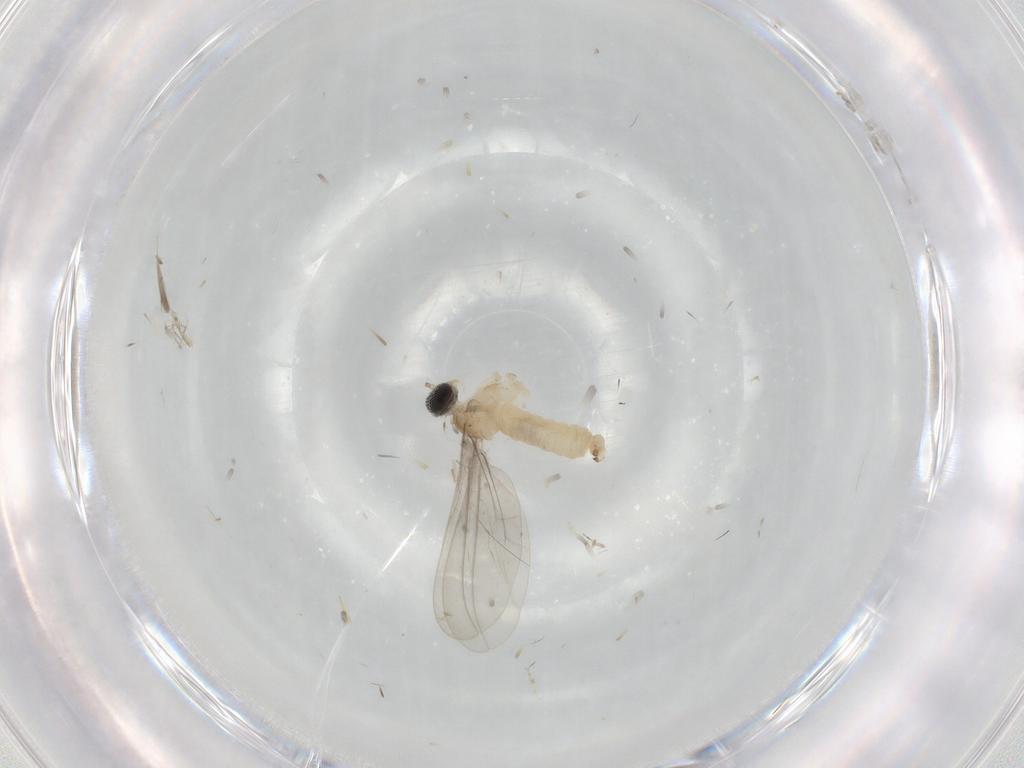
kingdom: Animalia
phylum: Arthropoda
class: Insecta
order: Diptera
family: Cecidomyiidae
